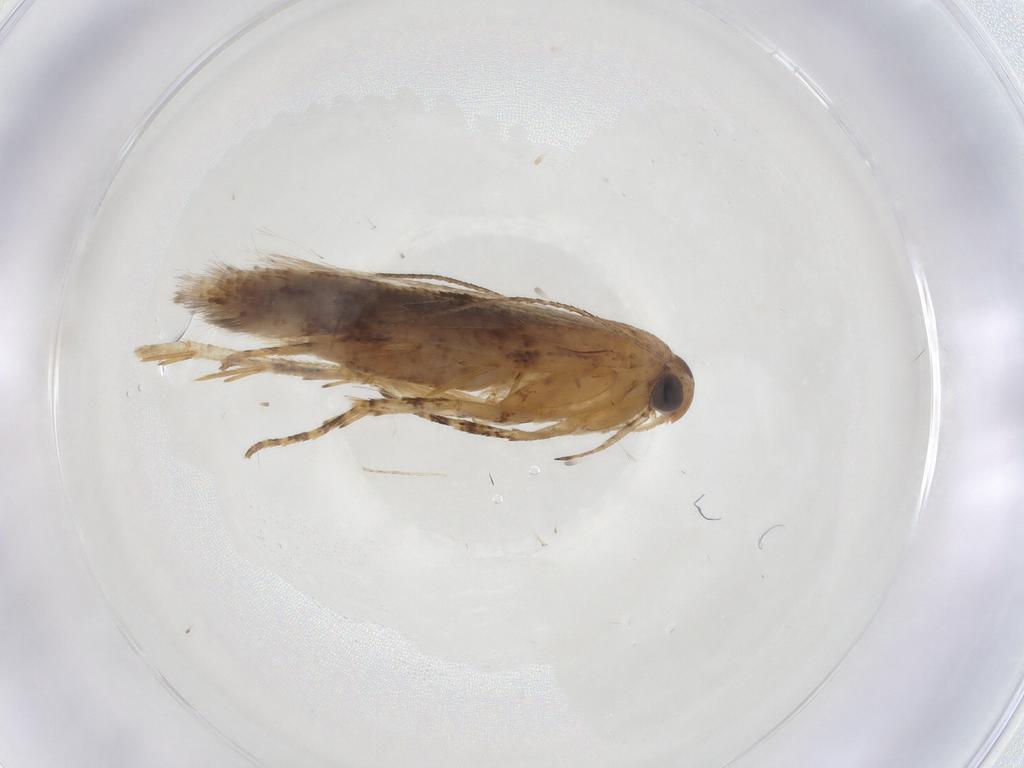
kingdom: Animalia
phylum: Arthropoda
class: Insecta
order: Lepidoptera
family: Gelechiidae
